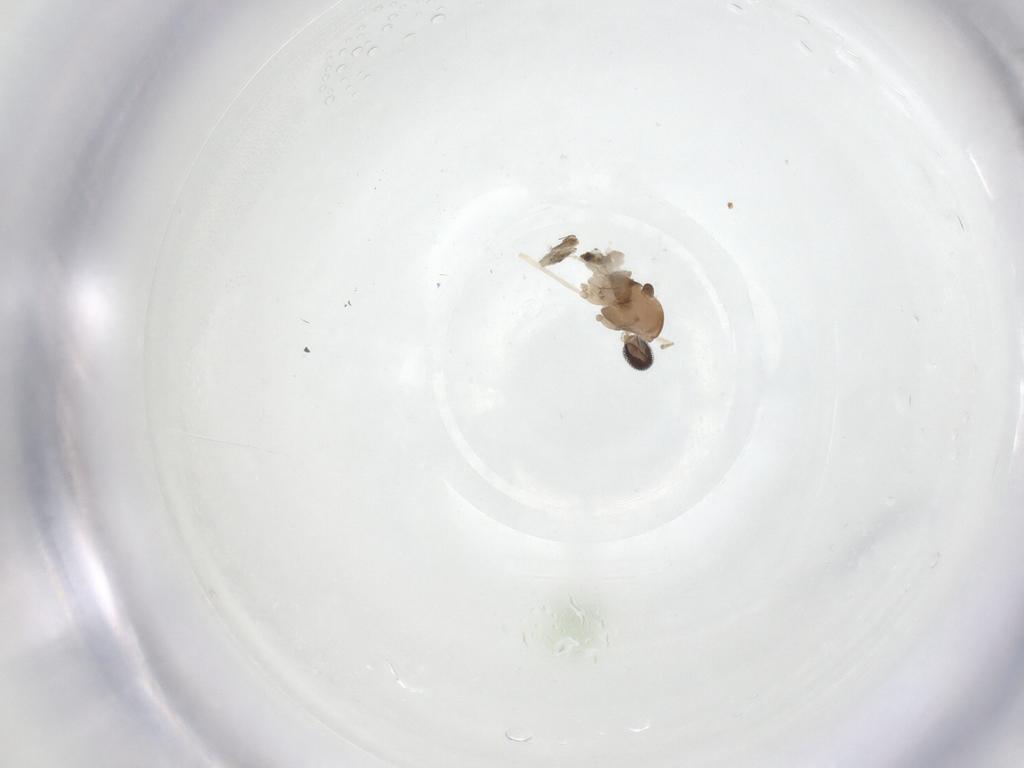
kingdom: Animalia
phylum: Arthropoda
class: Insecta
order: Diptera
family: Cecidomyiidae
